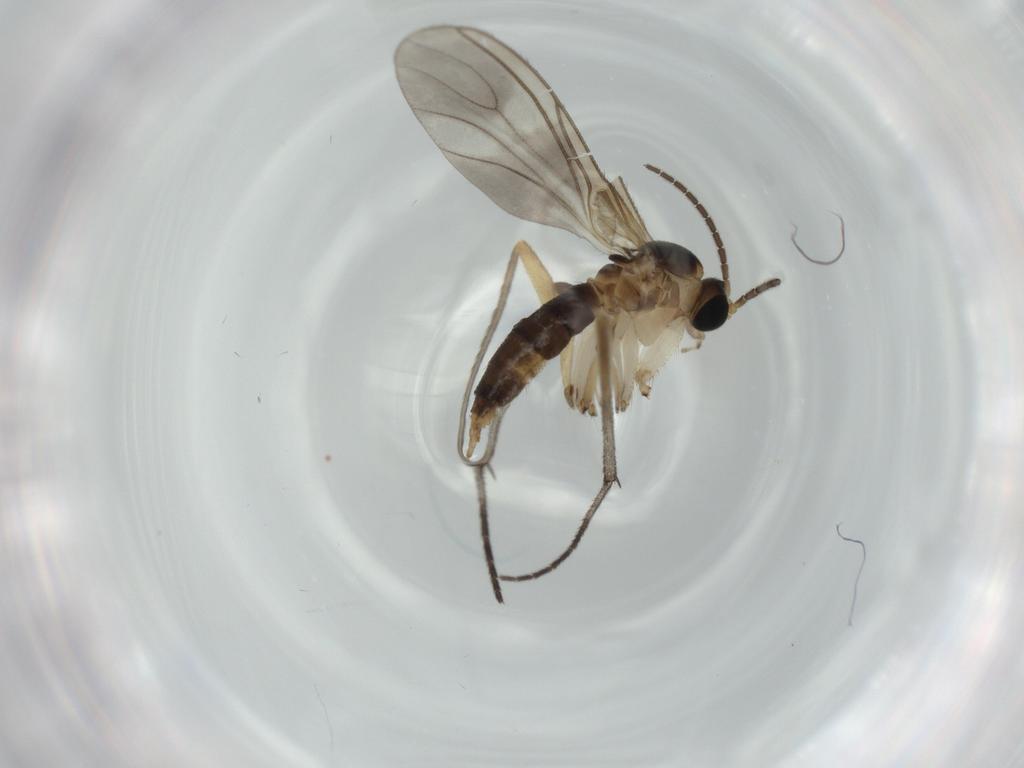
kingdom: Animalia
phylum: Arthropoda
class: Insecta
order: Diptera
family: Sciaridae
